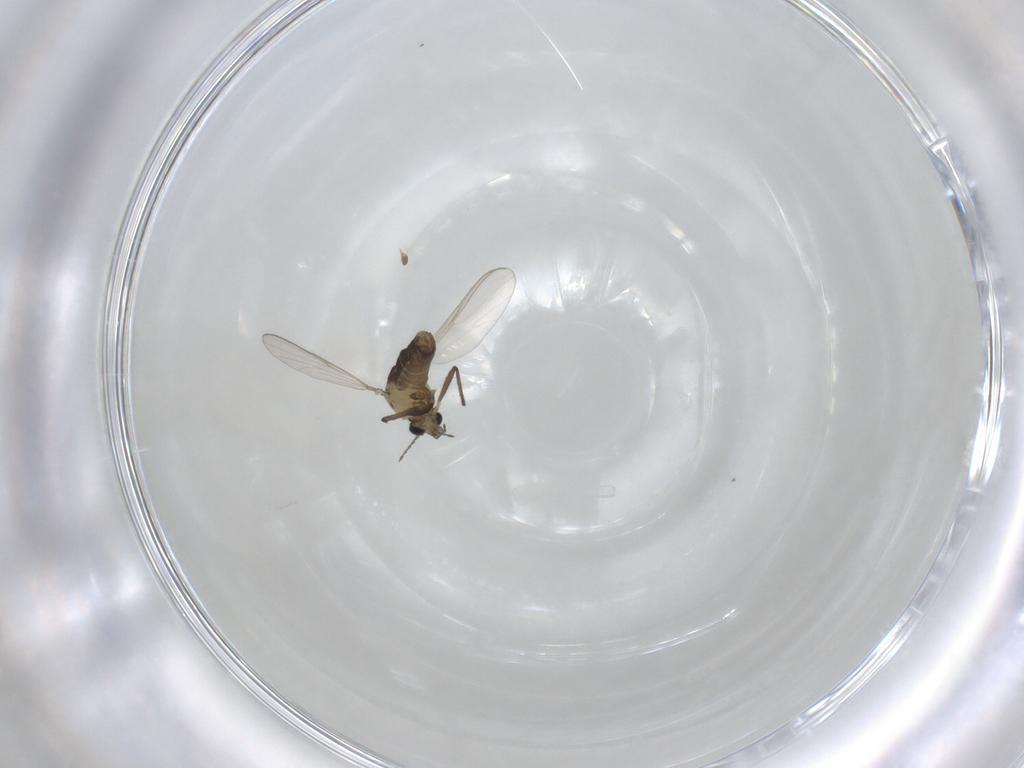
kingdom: Animalia
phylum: Arthropoda
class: Insecta
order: Diptera
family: Chironomidae
